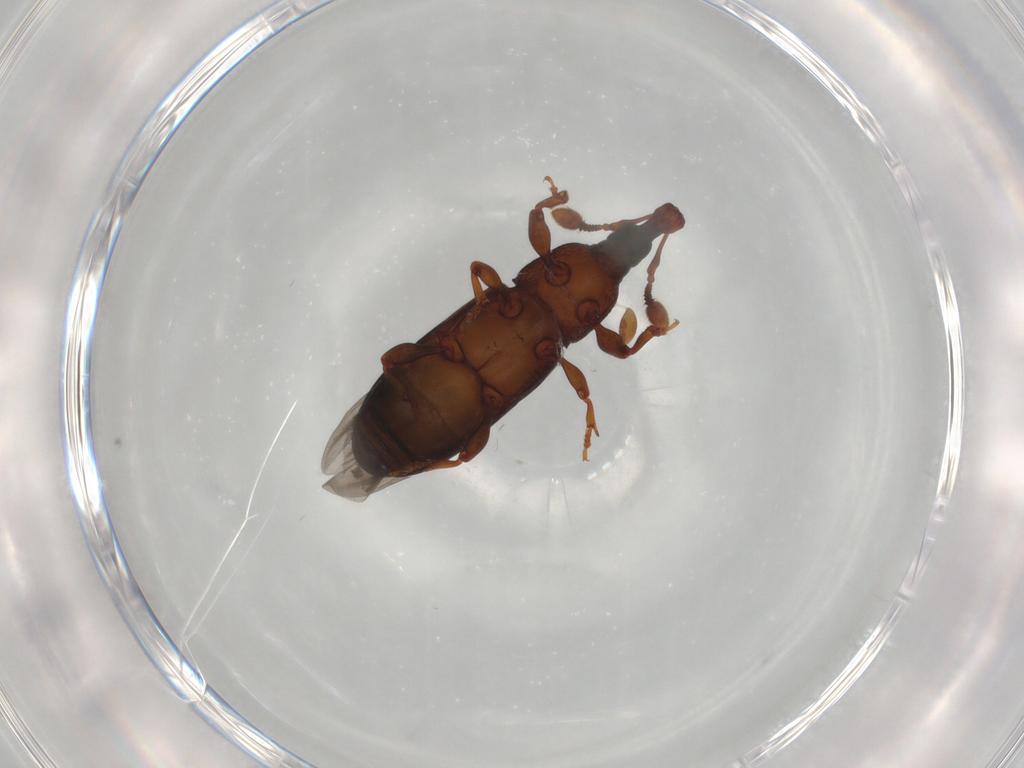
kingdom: Animalia
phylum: Arthropoda
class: Insecta
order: Coleoptera
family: Curculionidae
